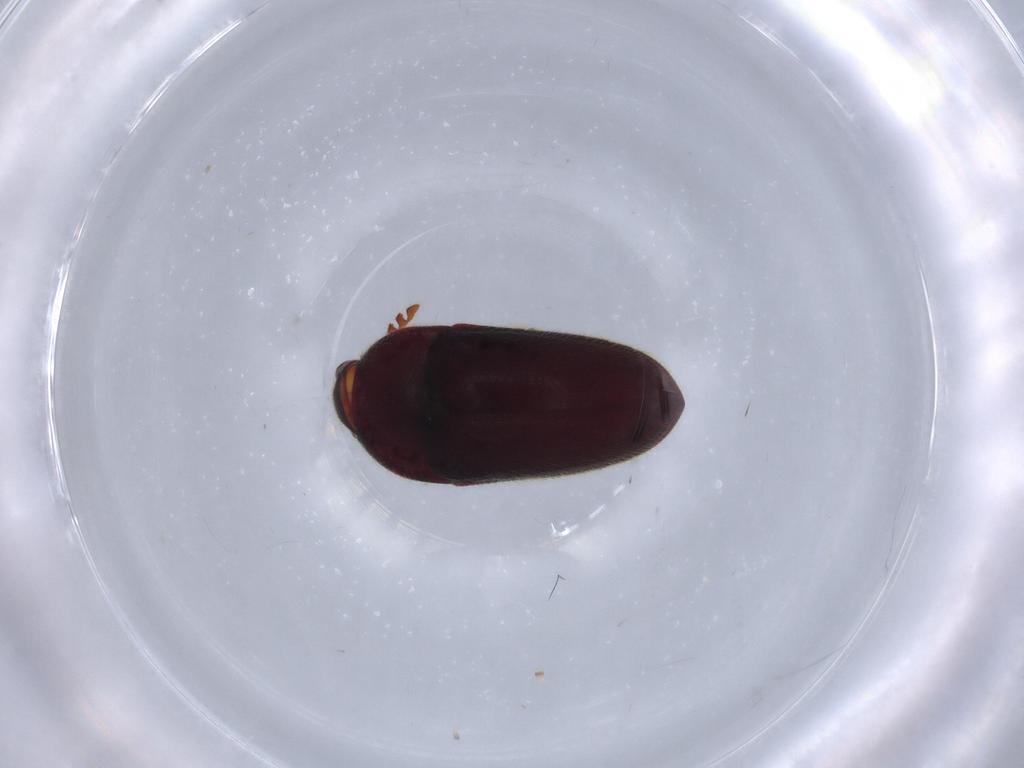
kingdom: Animalia
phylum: Arthropoda
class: Insecta
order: Coleoptera
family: Throscidae
